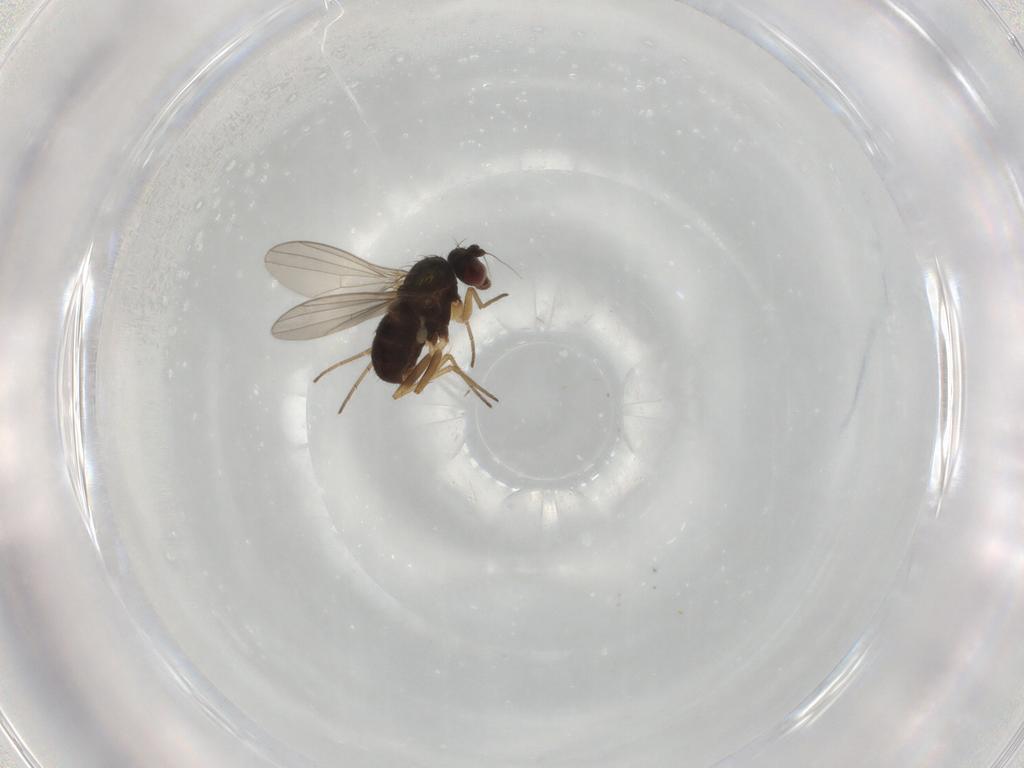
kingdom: Animalia
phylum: Arthropoda
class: Insecta
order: Diptera
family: Dolichopodidae
